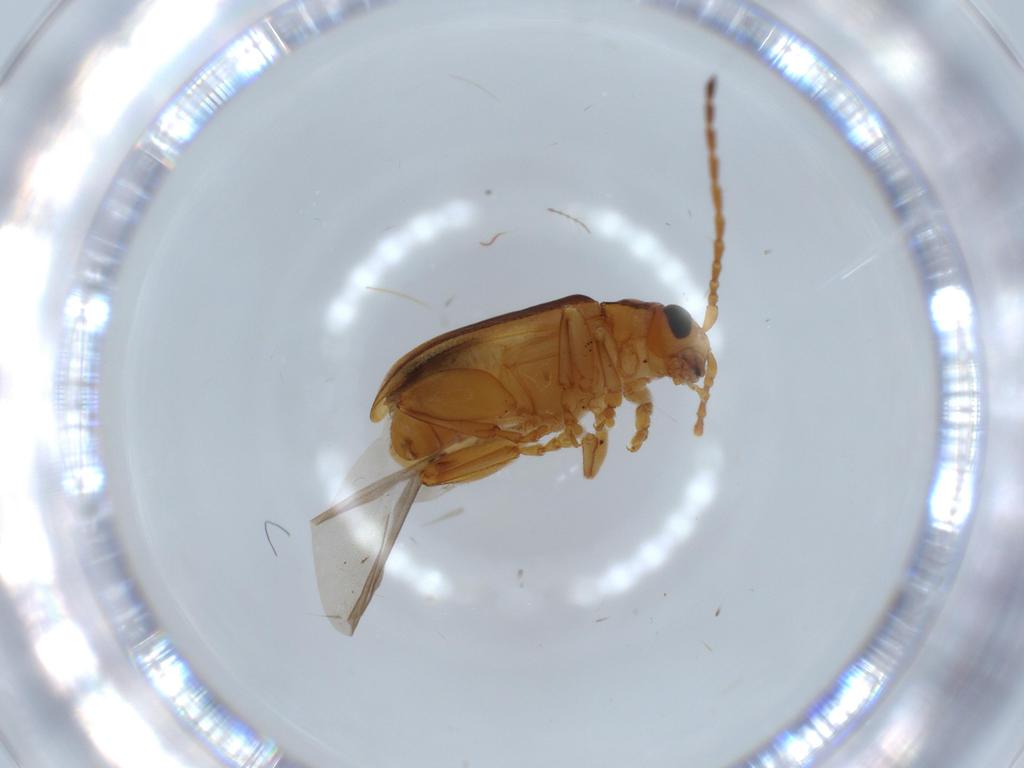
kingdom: Animalia
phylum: Arthropoda
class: Insecta
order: Coleoptera
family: Chrysomelidae
